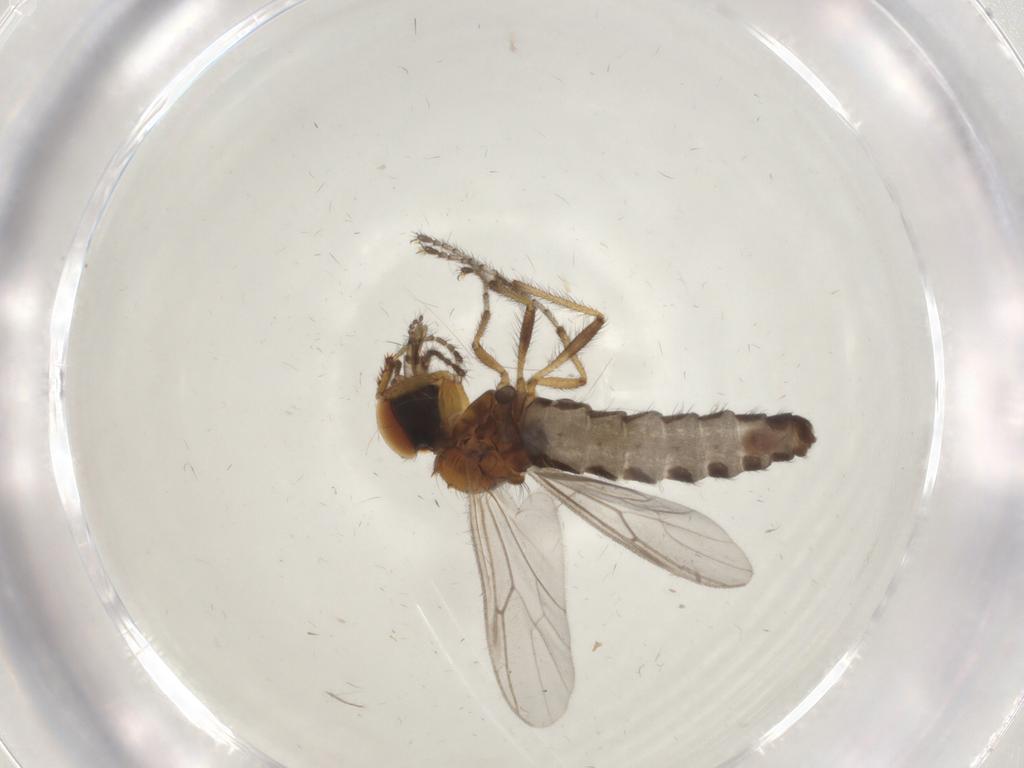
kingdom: Animalia
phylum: Arthropoda
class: Insecta
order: Diptera
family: Bibionidae
